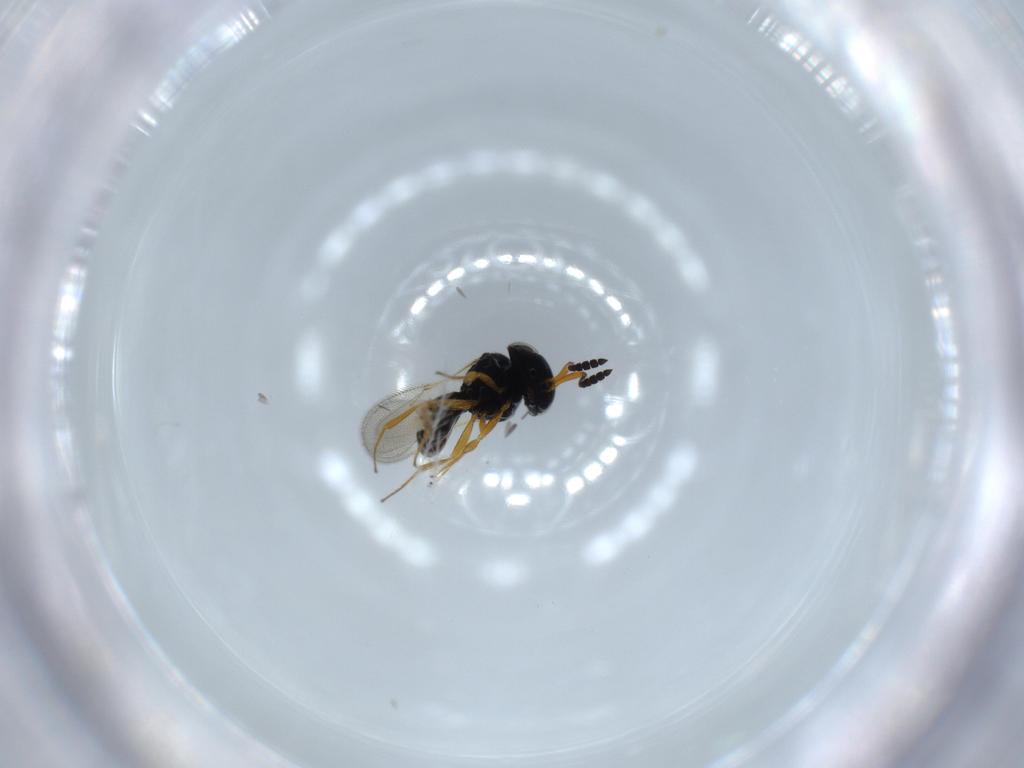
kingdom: Animalia
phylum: Arthropoda
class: Insecta
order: Hymenoptera
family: Scelionidae
